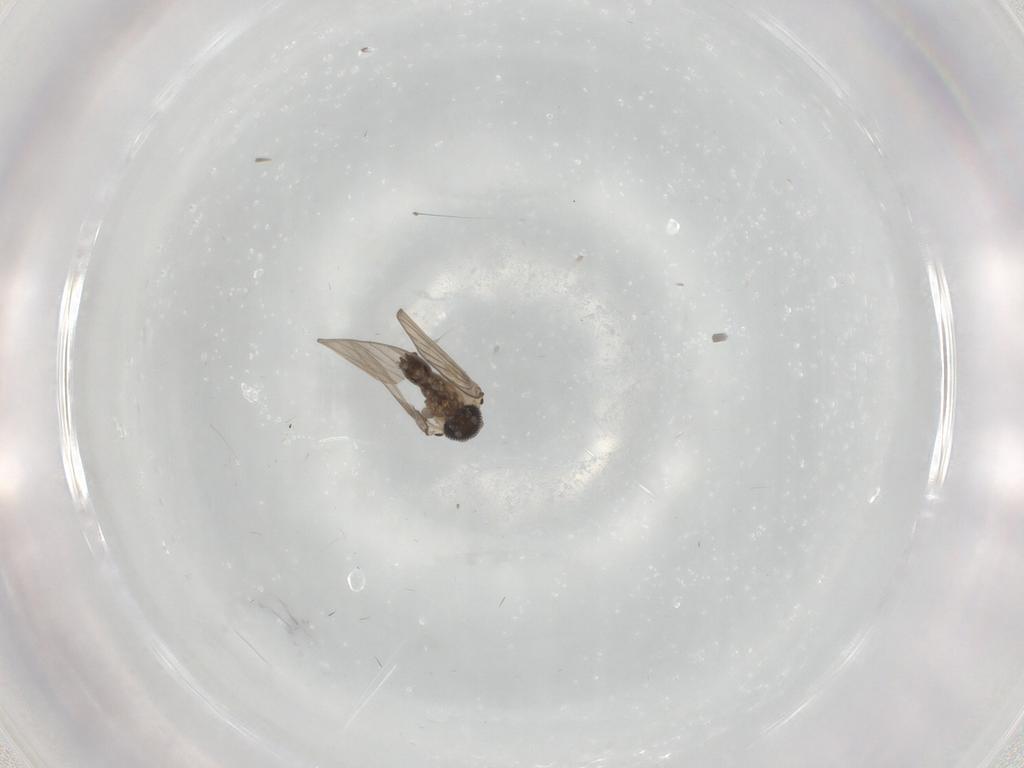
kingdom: Animalia
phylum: Arthropoda
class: Insecta
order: Diptera
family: Psychodidae
